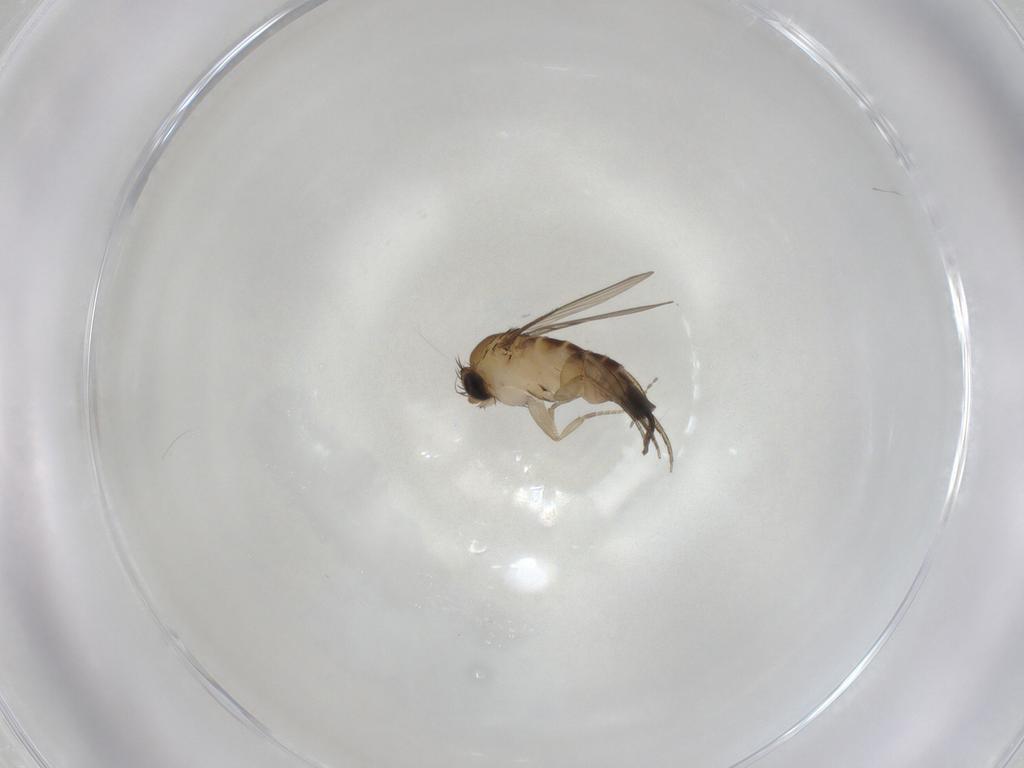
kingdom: Animalia
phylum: Arthropoda
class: Insecta
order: Diptera
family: Phoridae
